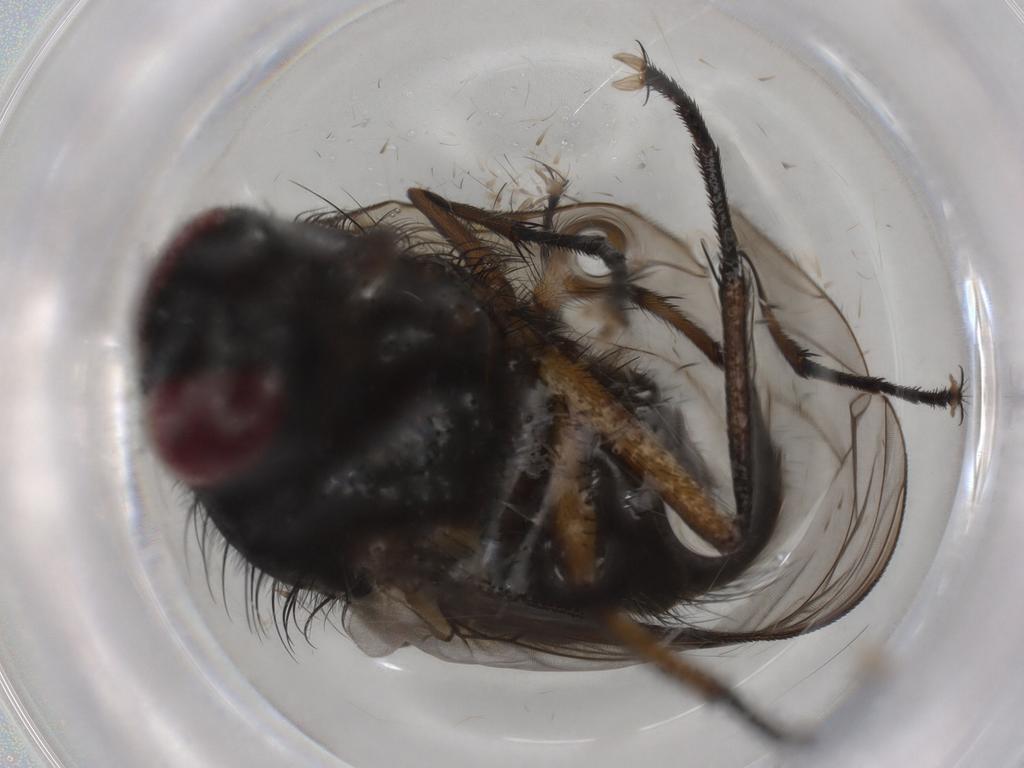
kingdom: Animalia
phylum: Arthropoda
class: Insecta
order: Diptera
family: Muscidae
